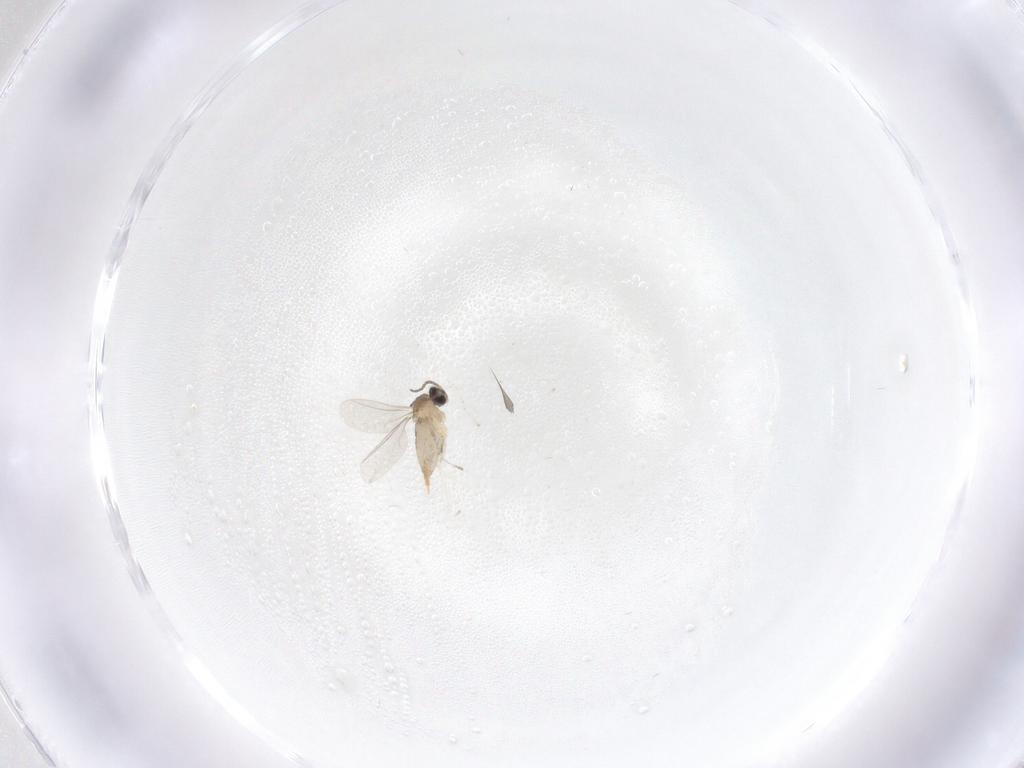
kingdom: Animalia
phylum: Arthropoda
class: Insecta
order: Diptera
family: Cecidomyiidae
